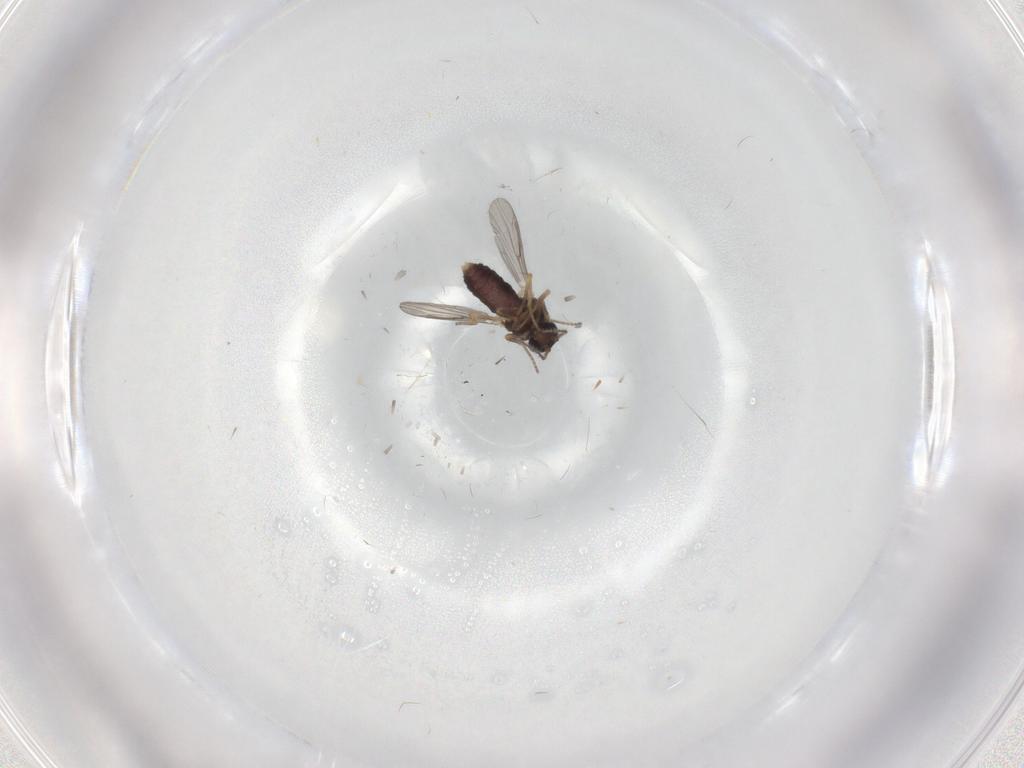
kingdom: Animalia
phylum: Arthropoda
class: Insecta
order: Diptera
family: Ceratopogonidae
